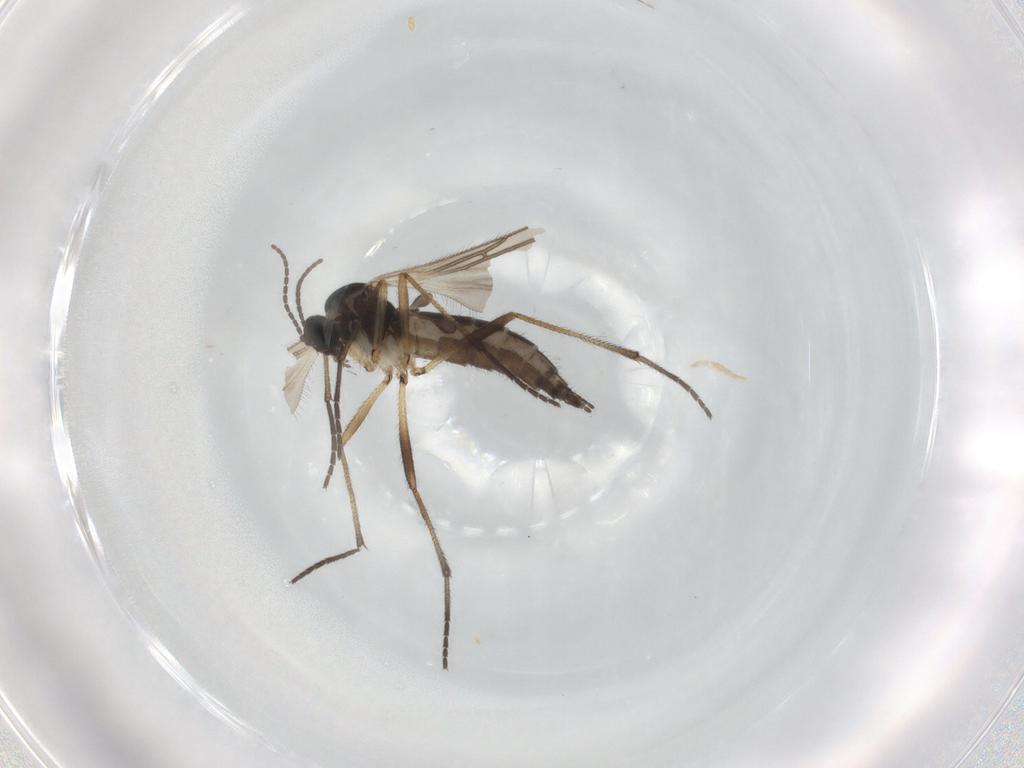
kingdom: Animalia
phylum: Arthropoda
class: Insecta
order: Diptera
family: Sciaridae
